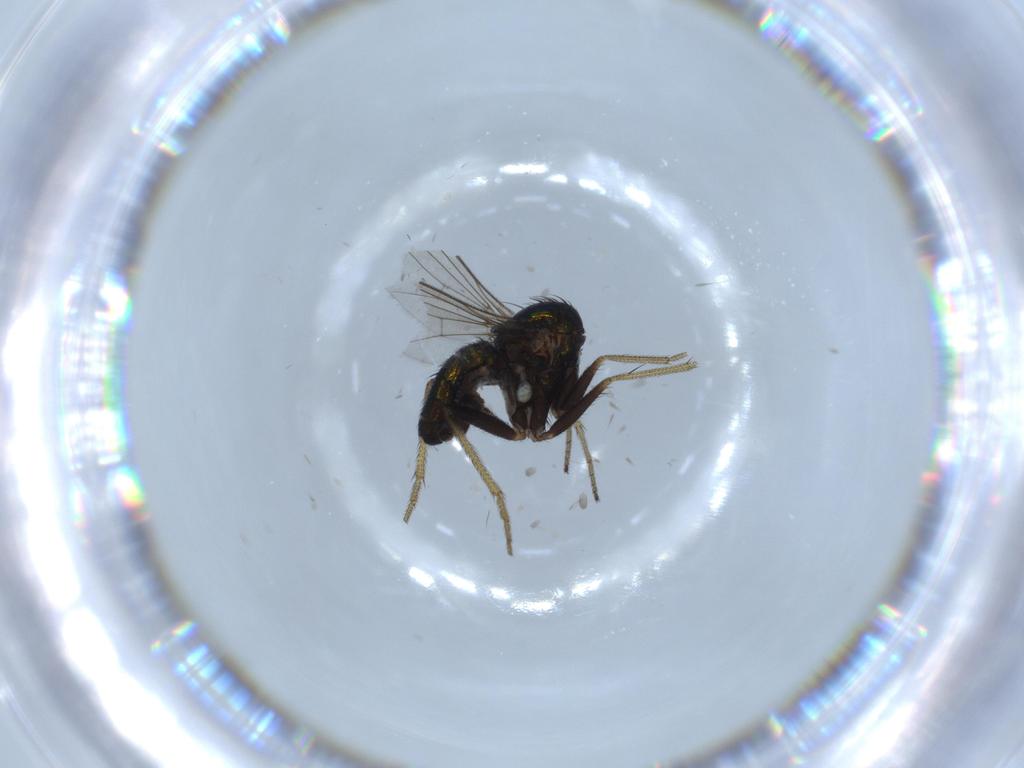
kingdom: Animalia
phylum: Arthropoda
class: Insecta
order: Diptera
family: Dolichopodidae
